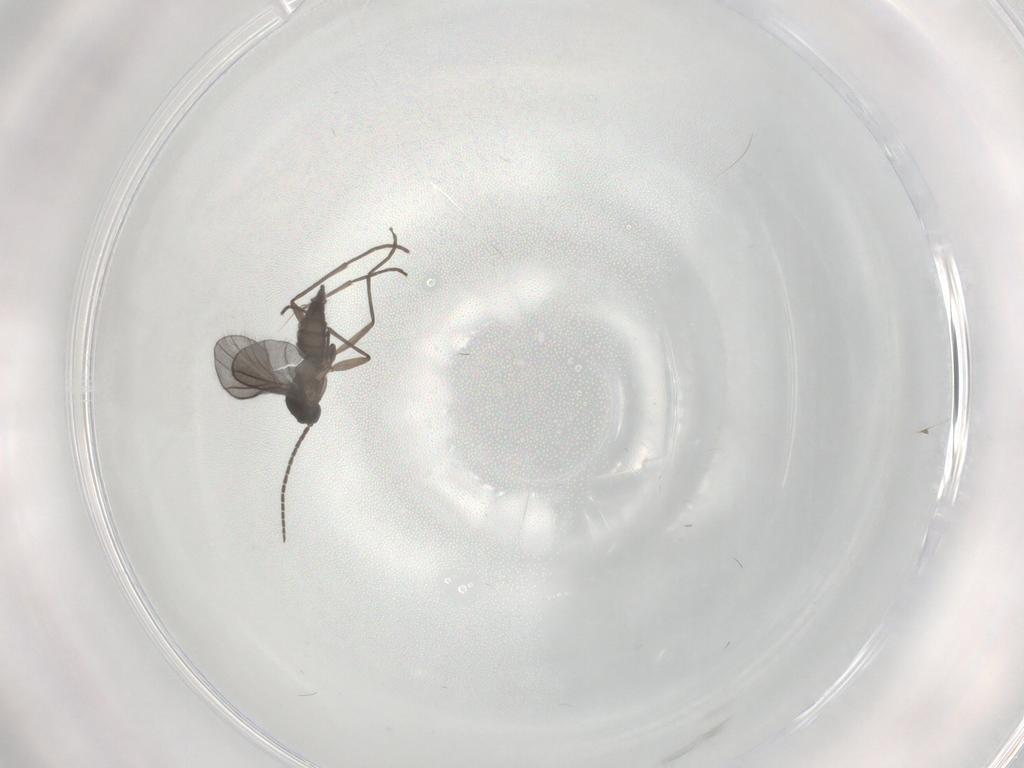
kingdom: Animalia
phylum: Arthropoda
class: Insecta
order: Diptera
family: Sciaridae
